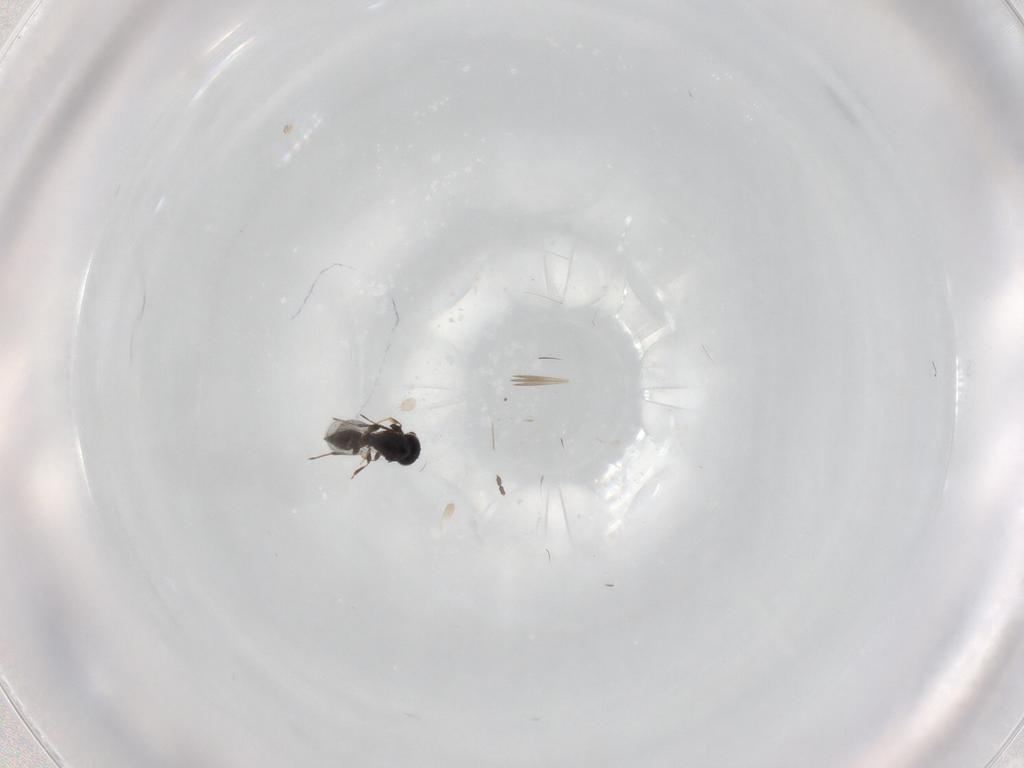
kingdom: Animalia
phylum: Arthropoda
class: Insecta
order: Hymenoptera
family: Platygastridae
